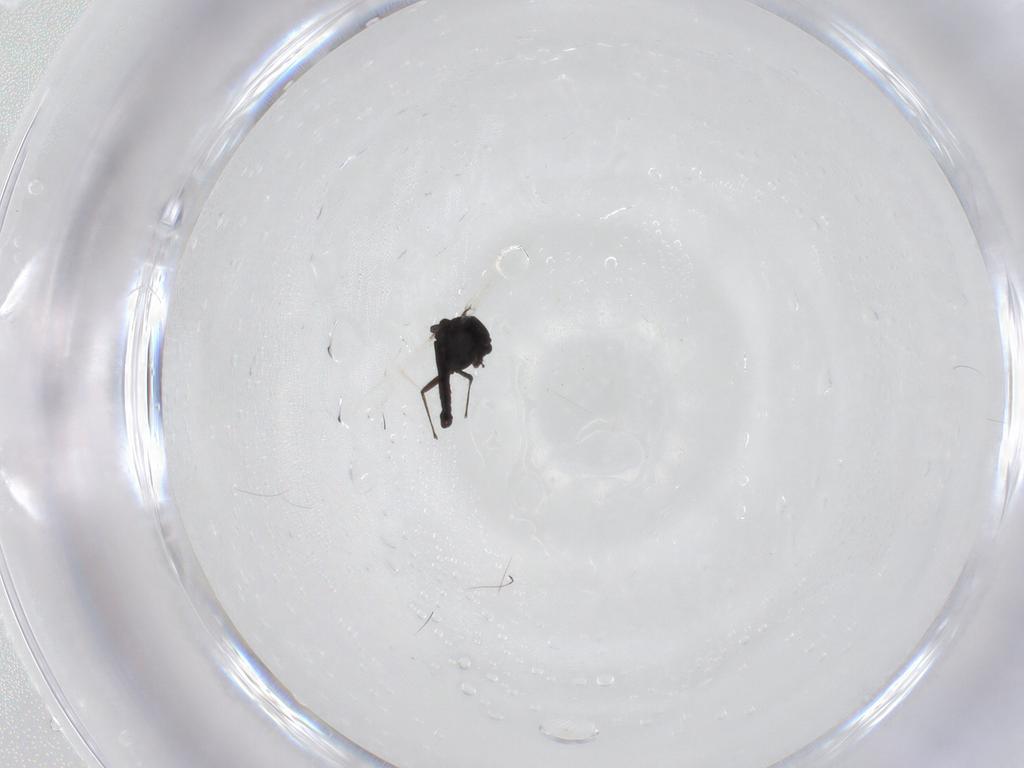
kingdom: Animalia
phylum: Arthropoda
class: Insecta
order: Diptera
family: Chironomidae
